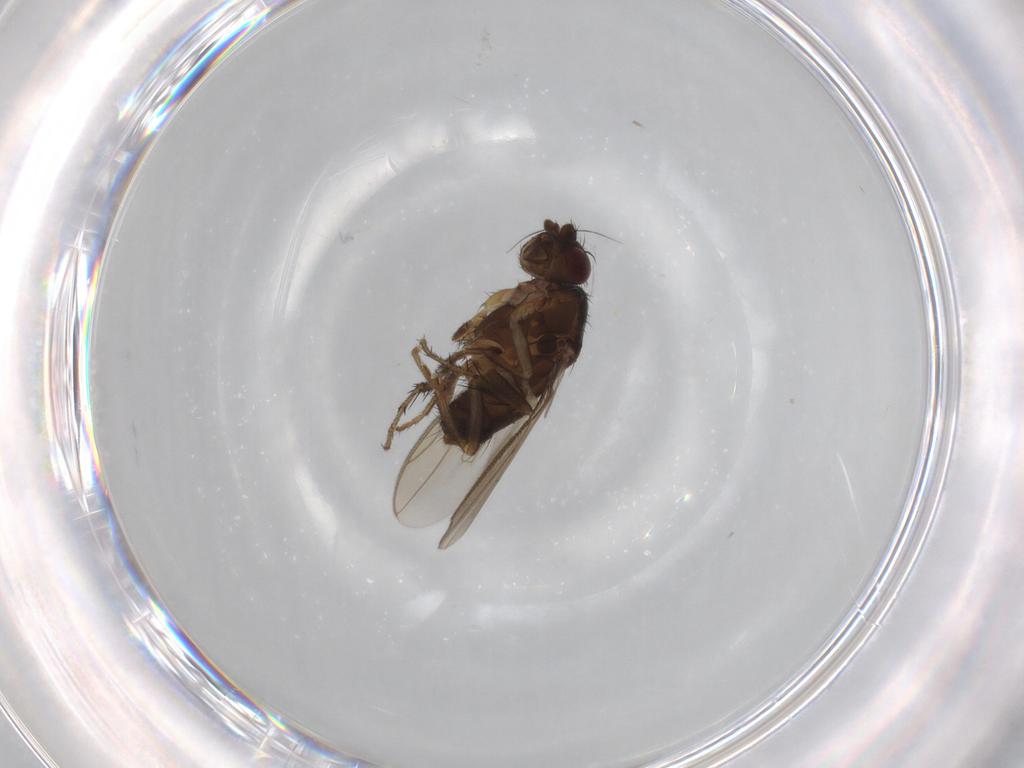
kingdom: Animalia
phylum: Arthropoda
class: Insecta
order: Diptera
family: Sphaeroceridae
